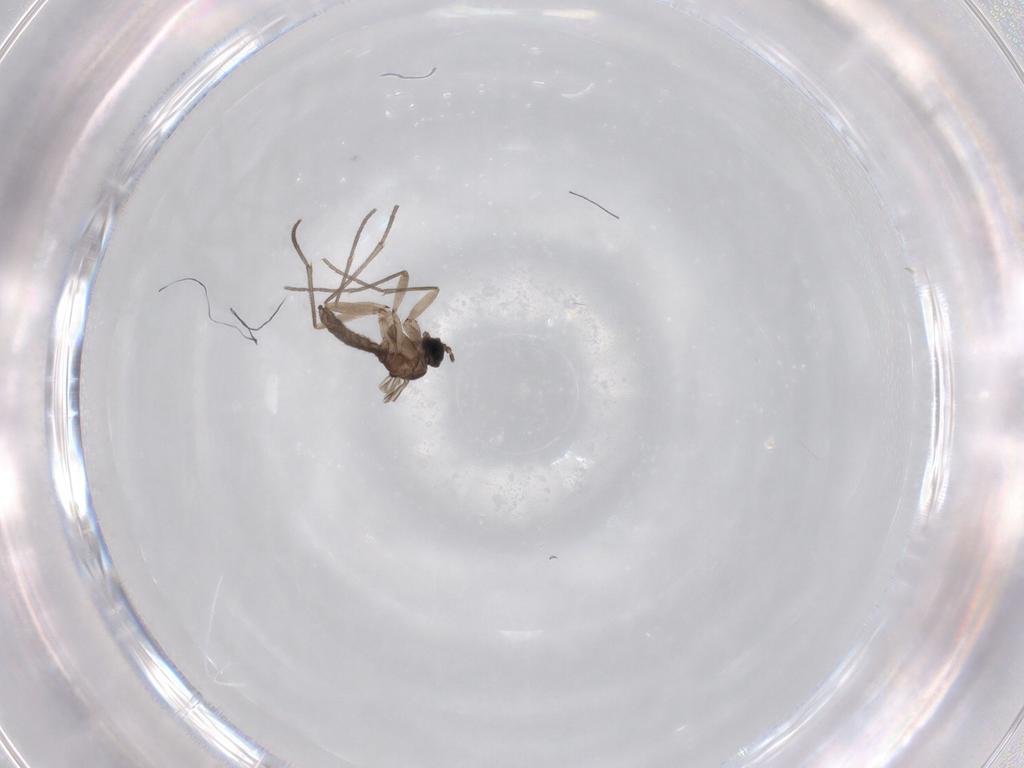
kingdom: Animalia
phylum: Arthropoda
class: Insecta
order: Diptera
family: Sciaridae
